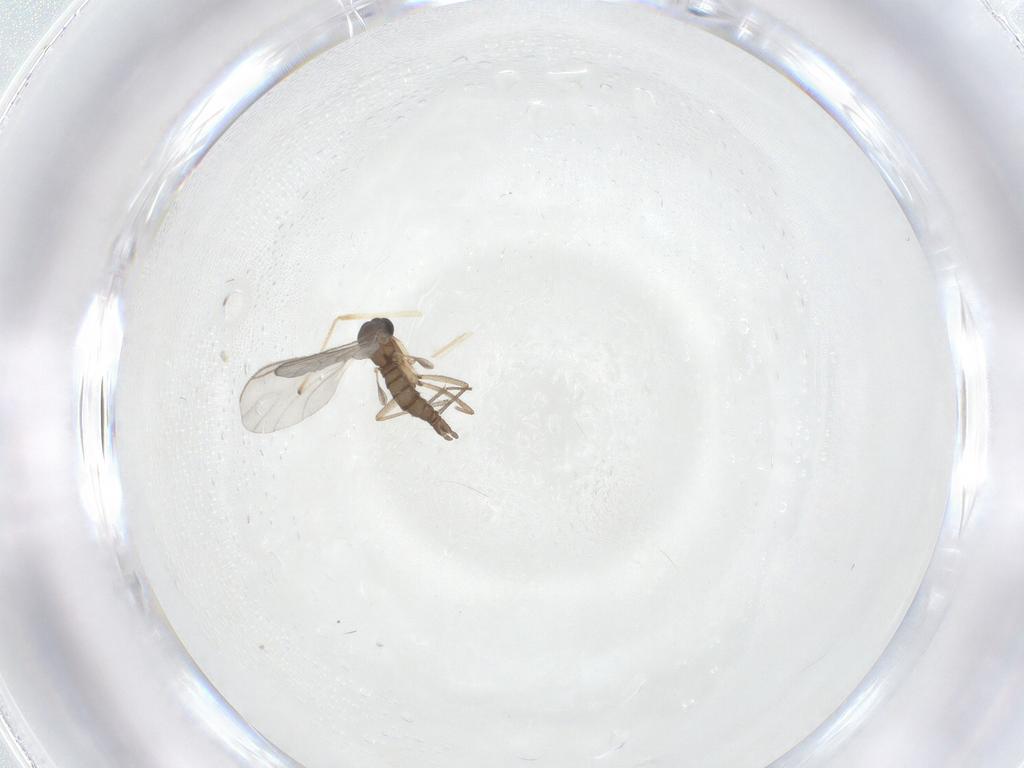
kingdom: Animalia
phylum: Arthropoda
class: Insecta
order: Diptera
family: Sciaridae
